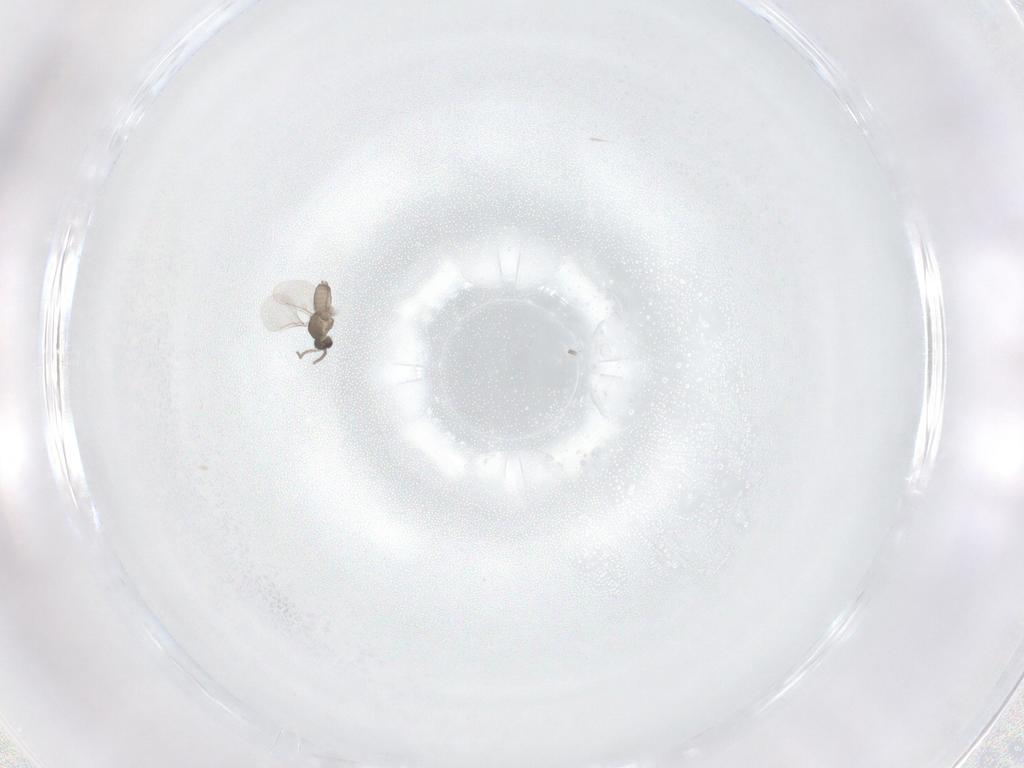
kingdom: Animalia
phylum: Arthropoda
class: Insecta
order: Diptera
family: Cecidomyiidae
